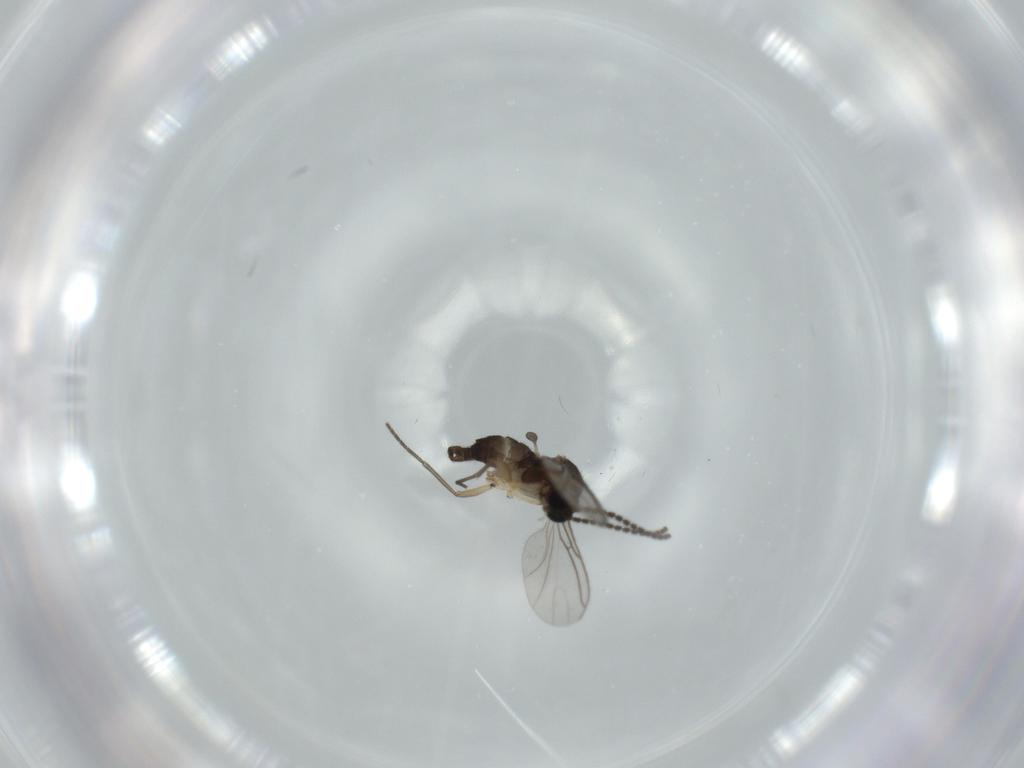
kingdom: Animalia
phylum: Arthropoda
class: Insecta
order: Diptera
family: Sciaridae
